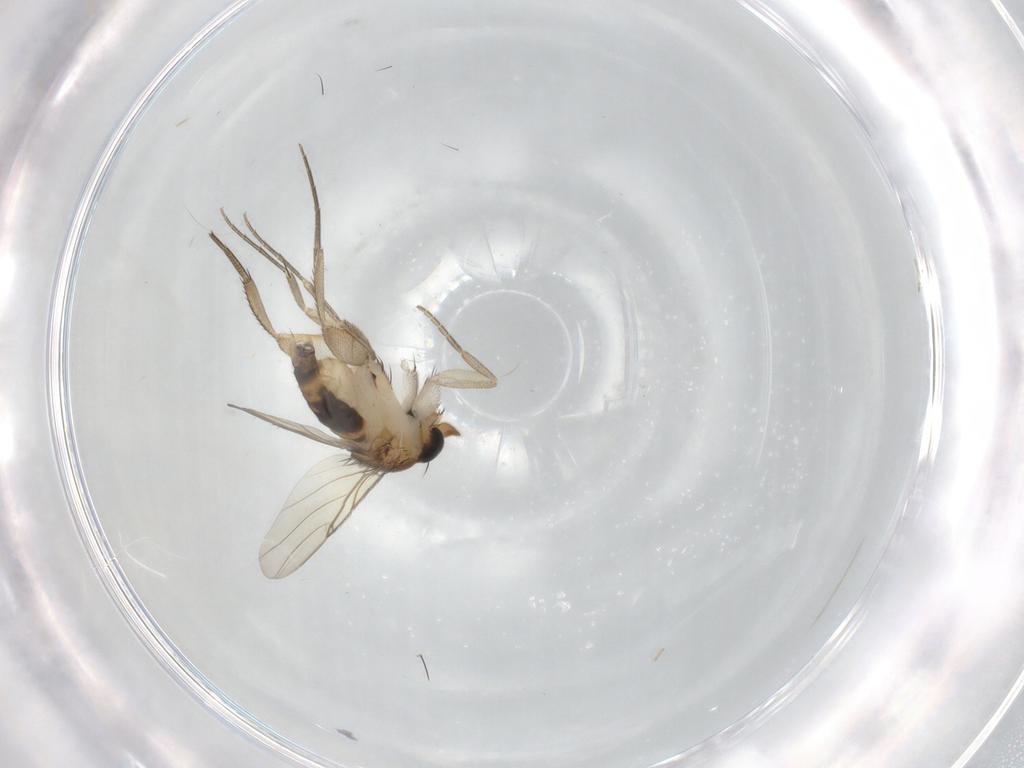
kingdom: Animalia
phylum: Arthropoda
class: Insecta
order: Diptera
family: Phoridae
